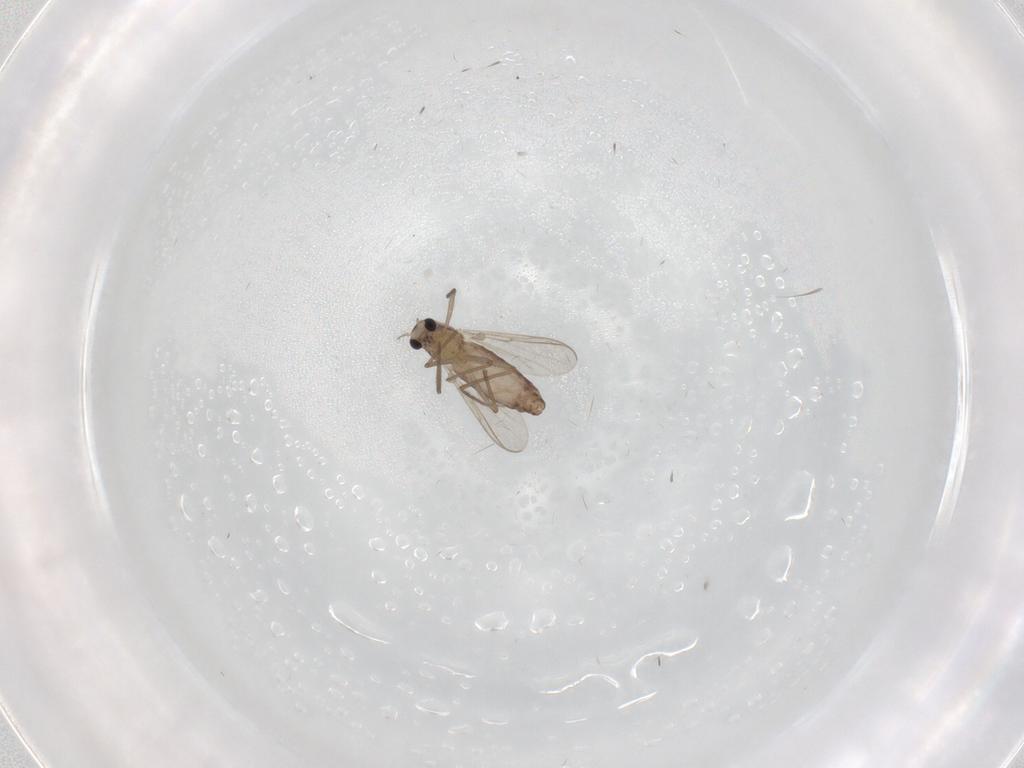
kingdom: Animalia
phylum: Arthropoda
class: Insecta
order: Diptera
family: Chironomidae
